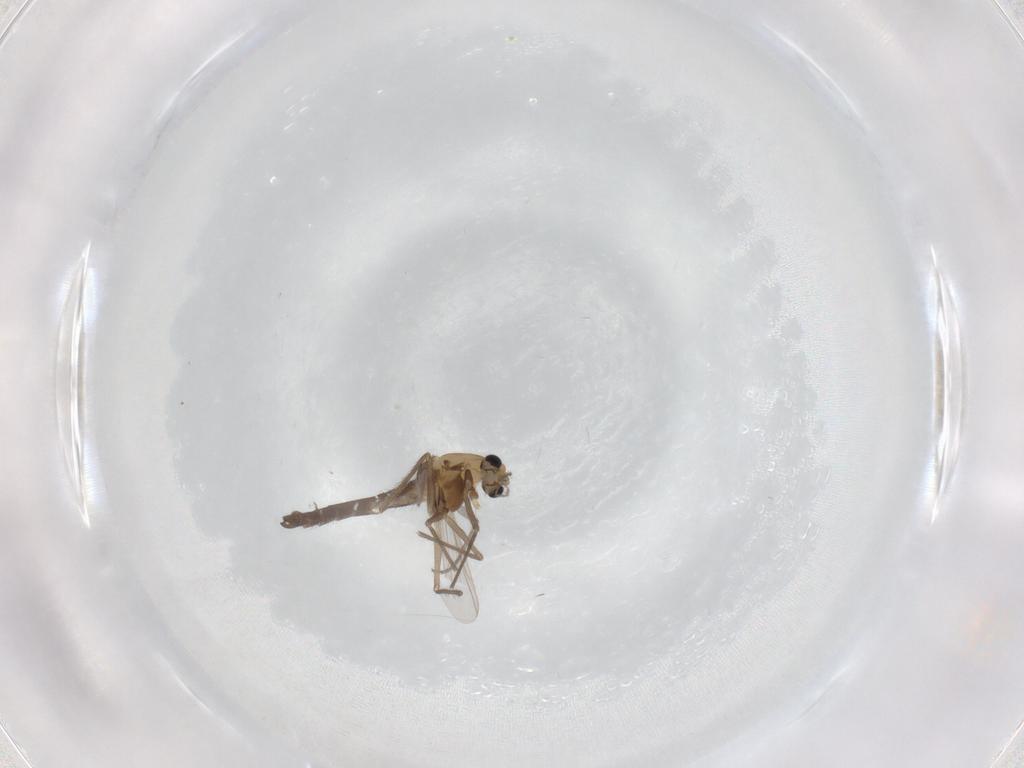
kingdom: Animalia
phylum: Arthropoda
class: Insecta
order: Diptera
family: Chironomidae
